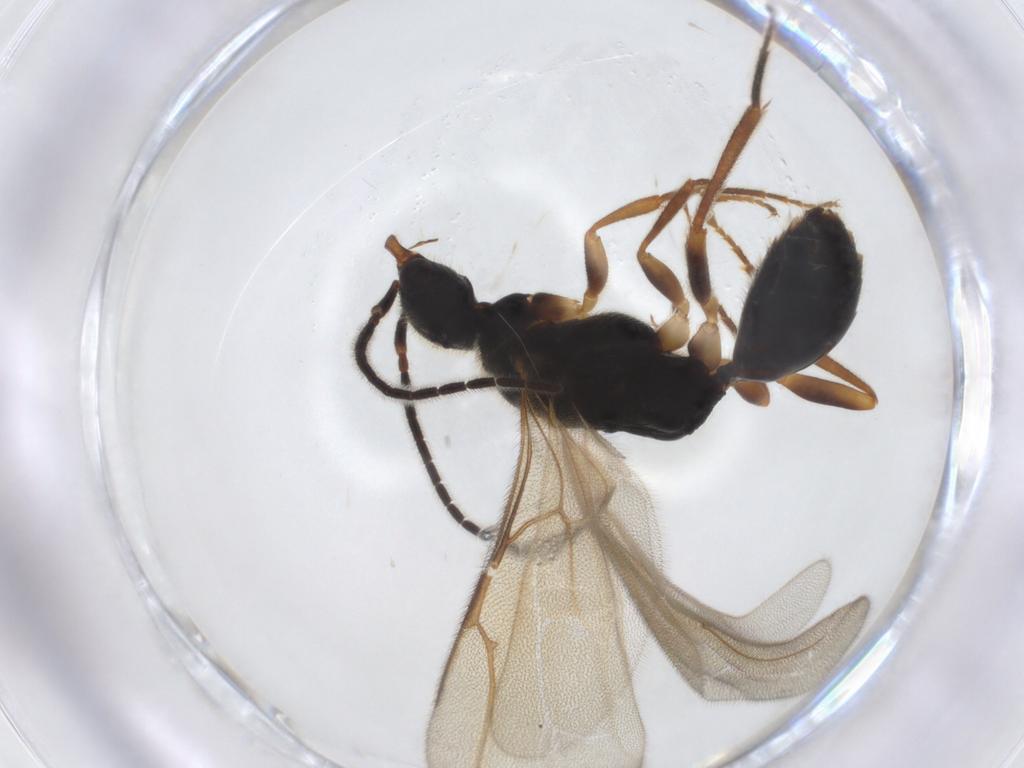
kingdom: Animalia
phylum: Arthropoda
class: Insecta
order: Hymenoptera
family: Bethylidae
